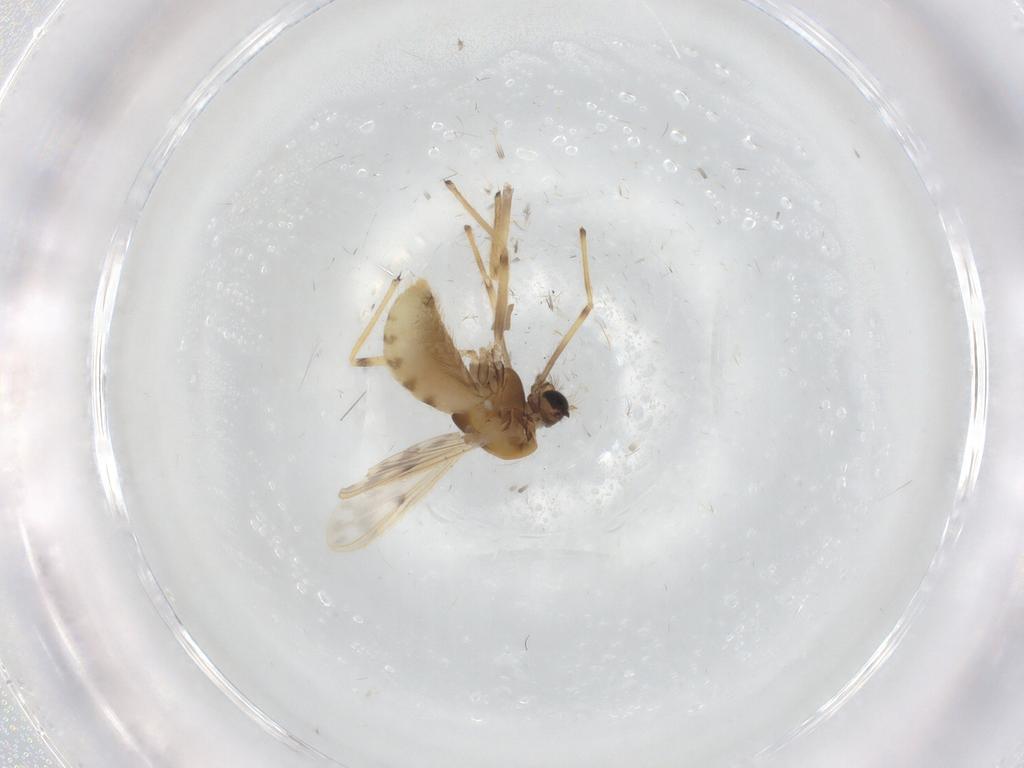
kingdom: Animalia
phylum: Arthropoda
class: Insecta
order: Diptera
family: Chironomidae
